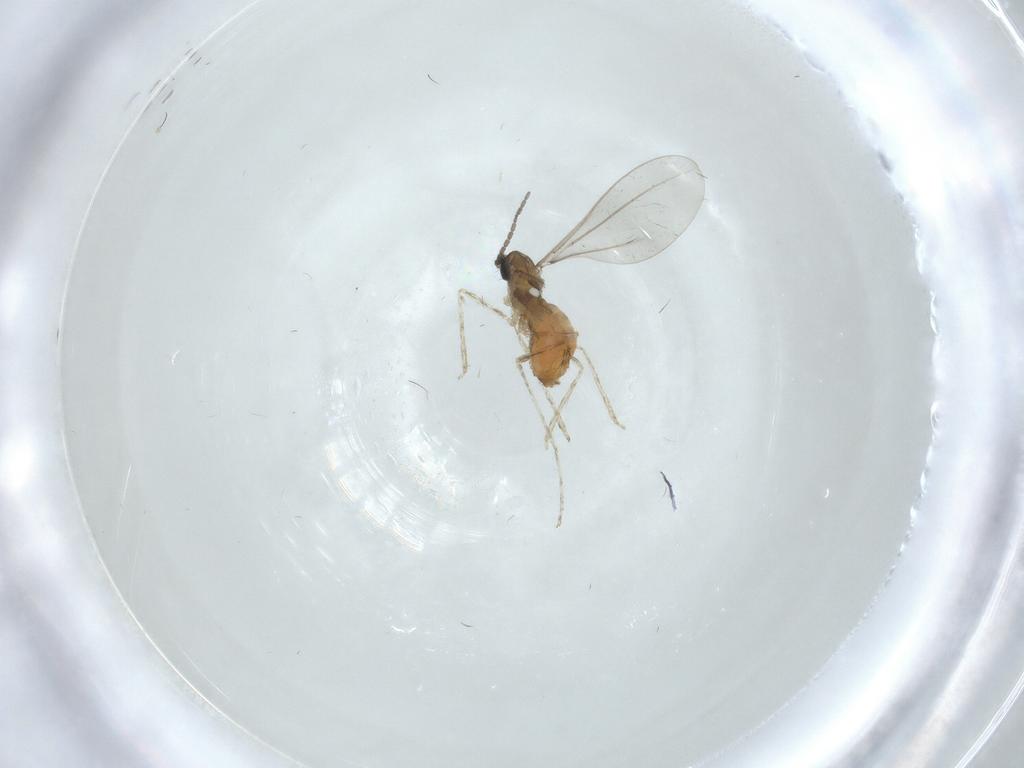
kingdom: Animalia
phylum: Arthropoda
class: Insecta
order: Diptera
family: Cecidomyiidae
